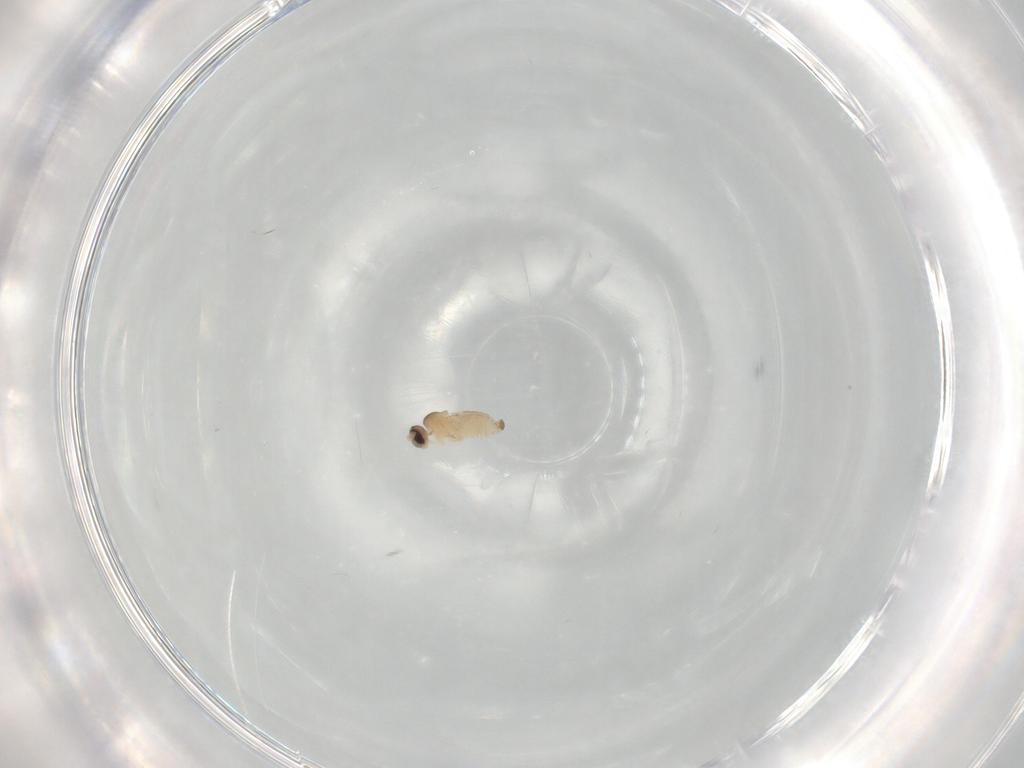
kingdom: Animalia
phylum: Arthropoda
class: Insecta
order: Diptera
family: Cecidomyiidae
